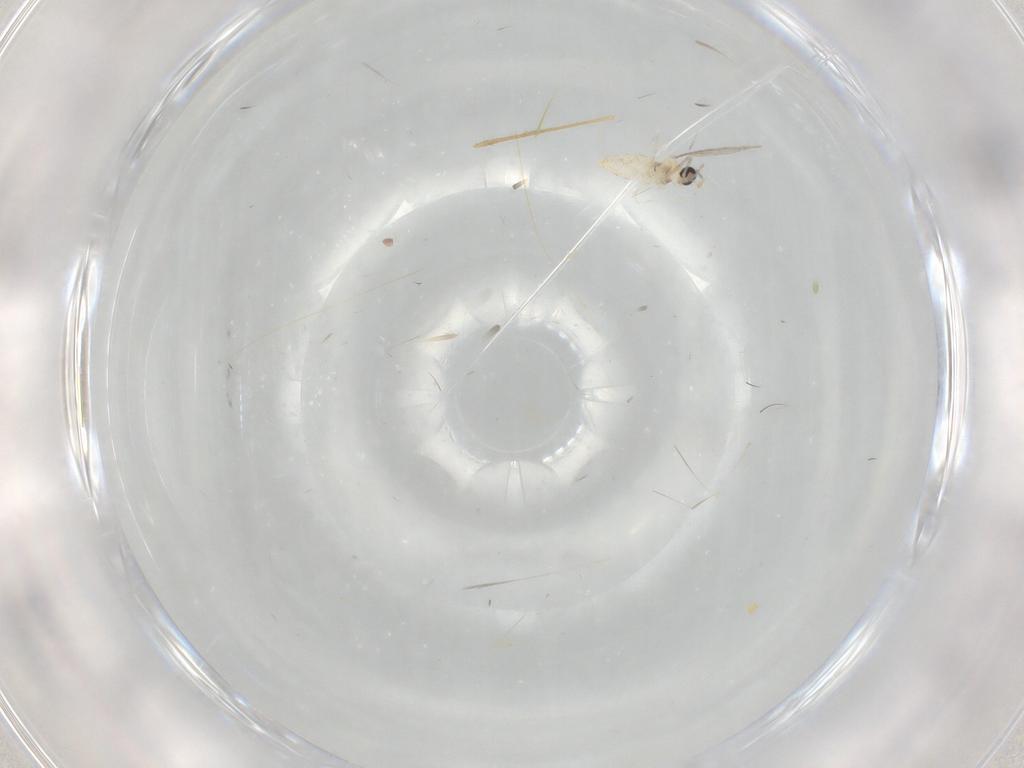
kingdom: Animalia
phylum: Arthropoda
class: Insecta
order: Diptera
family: Cecidomyiidae
